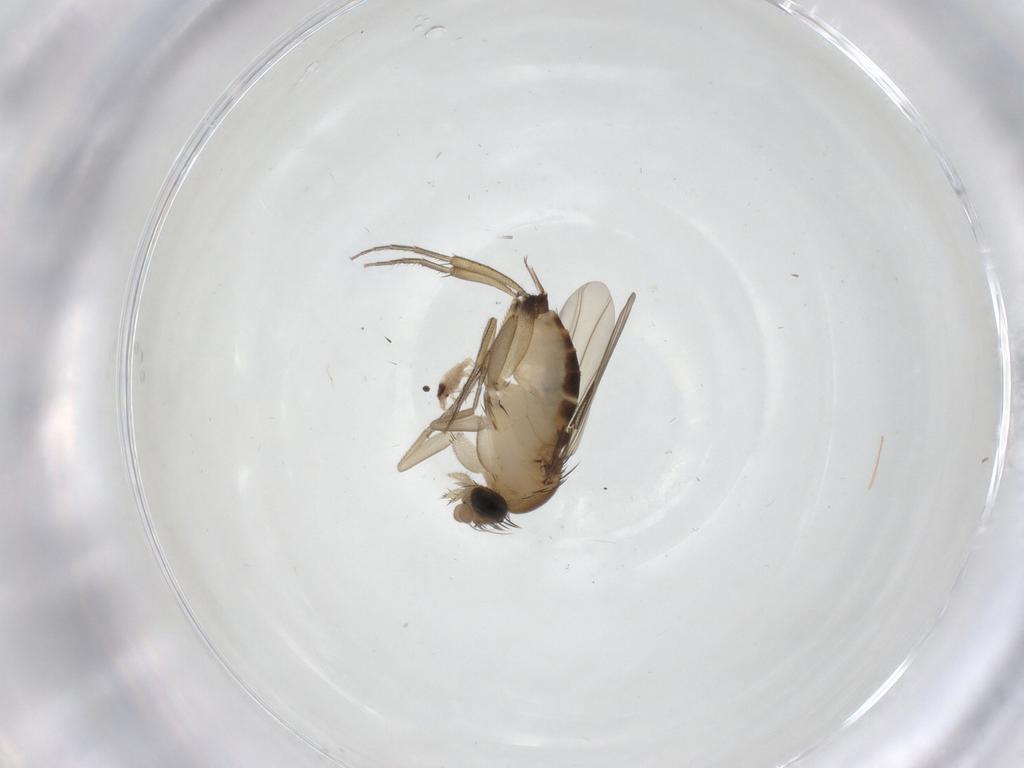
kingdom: Animalia
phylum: Arthropoda
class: Insecta
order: Diptera
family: Phoridae
